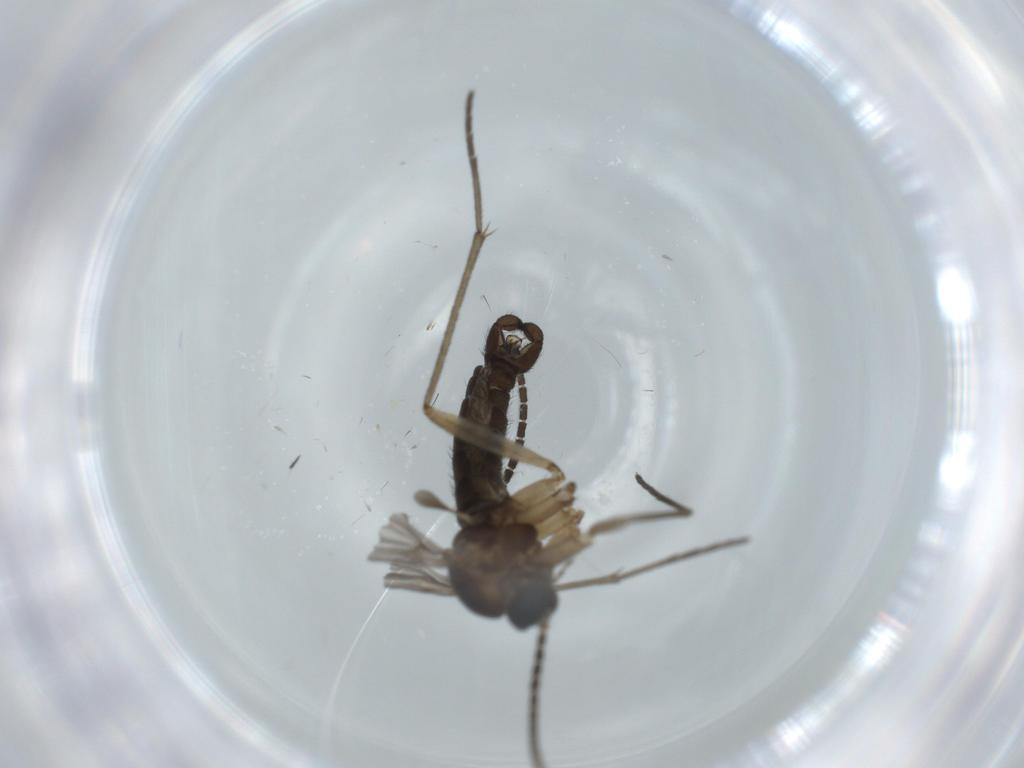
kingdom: Animalia
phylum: Arthropoda
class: Insecta
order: Diptera
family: Sciaridae
